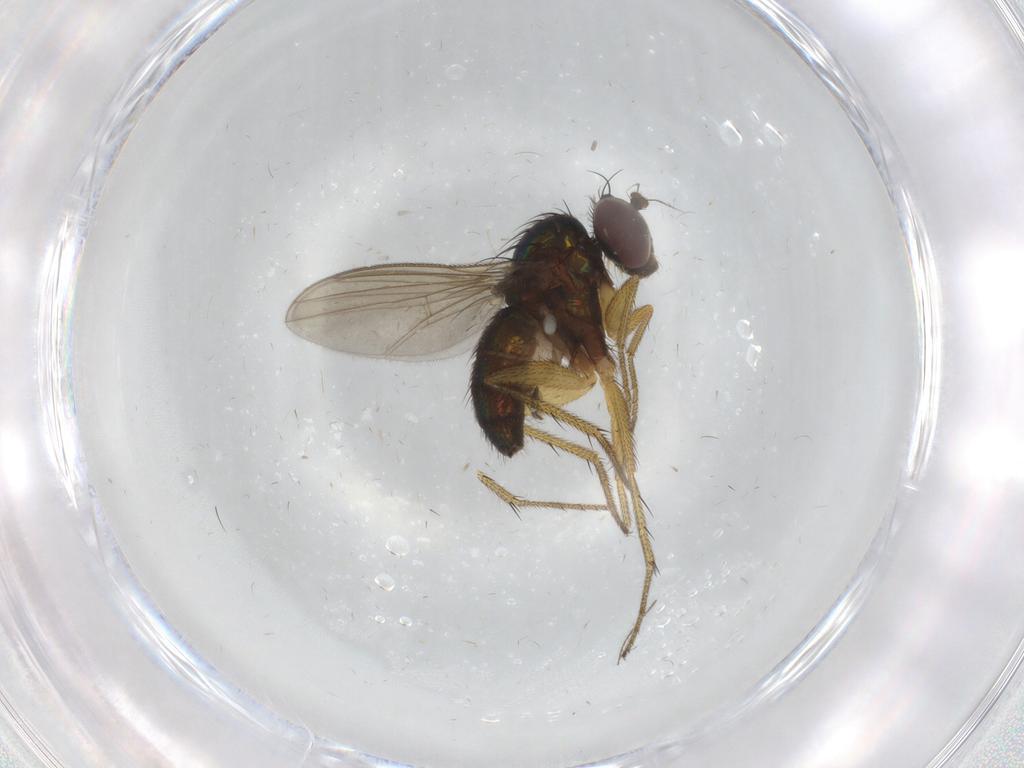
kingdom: Animalia
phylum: Arthropoda
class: Insecta
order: Diptera
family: Dolichopodidae
